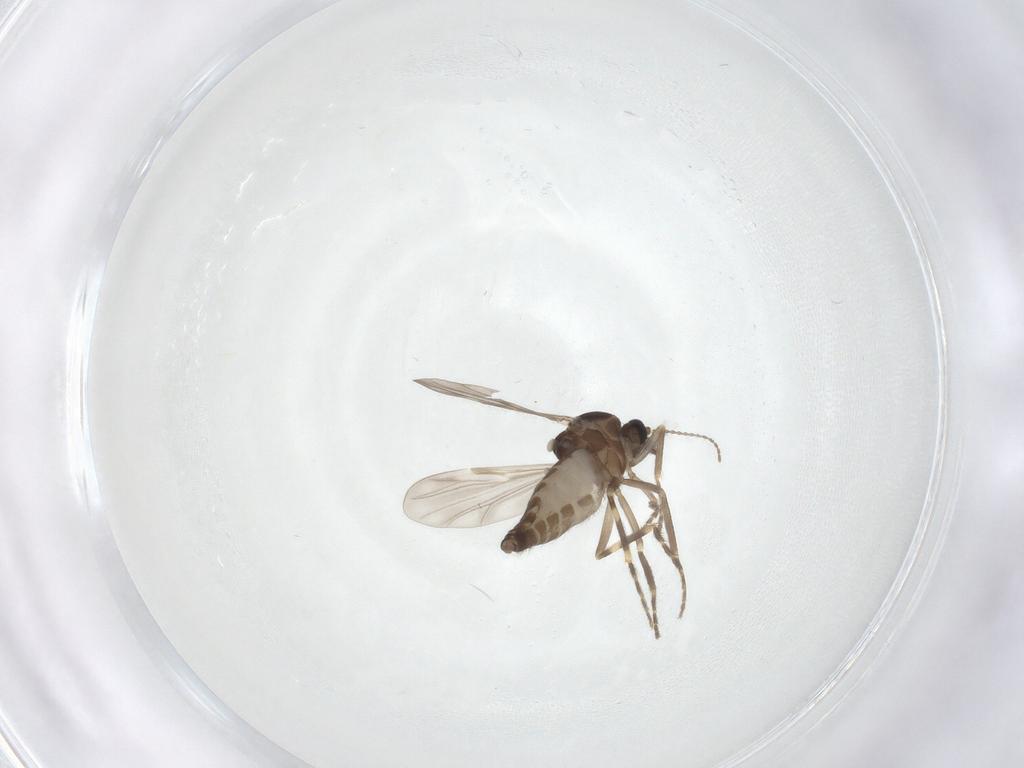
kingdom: Animalia
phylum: Arthropoda
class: Insecta
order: Diptera
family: Ceratopogonidae
